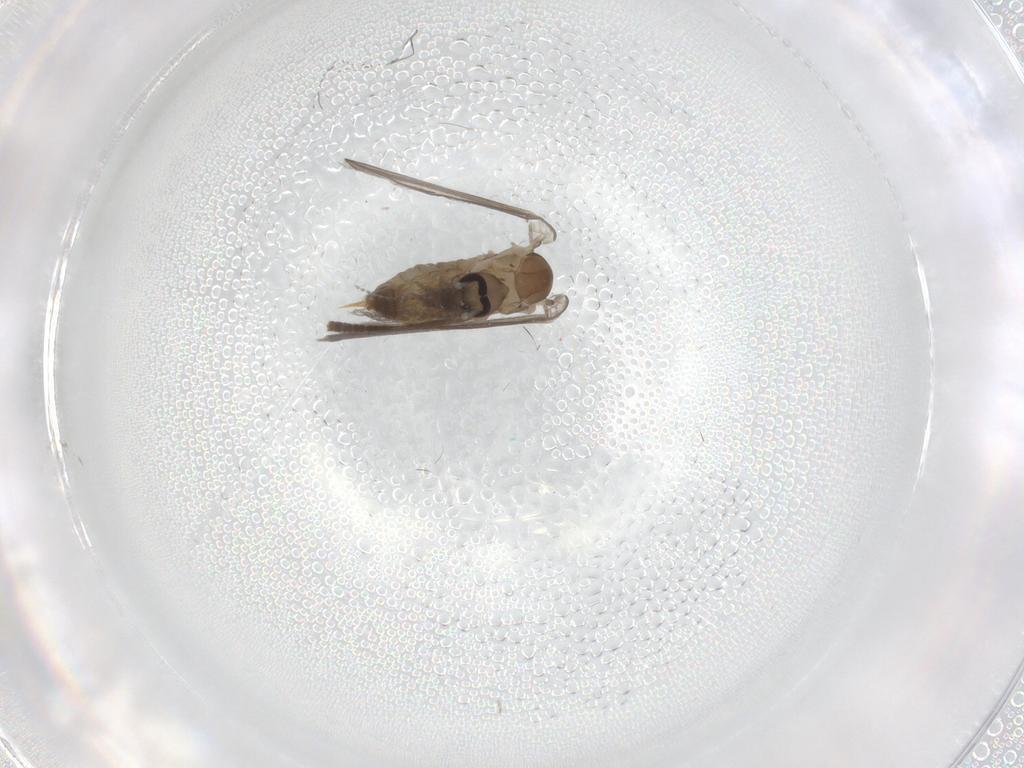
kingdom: Animalia
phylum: Arthropoda
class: Insecta
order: Diptera
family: Psychodidae
